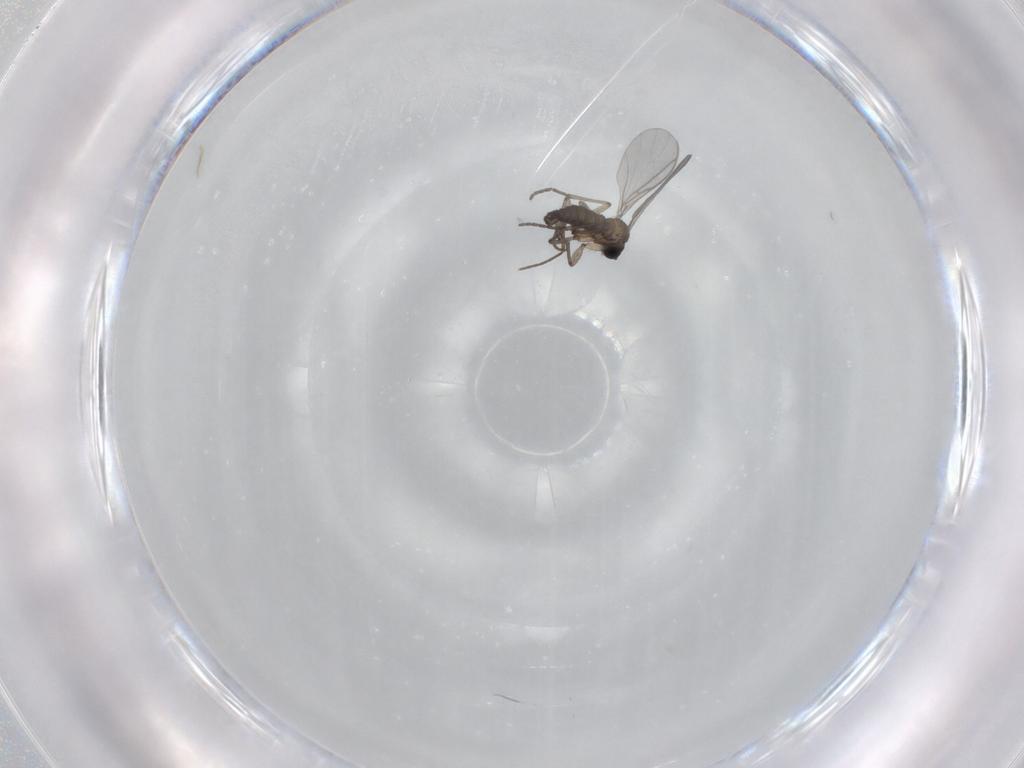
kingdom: Animalia
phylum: Arthropoda
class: Insecta
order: Diptera
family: Sciaridae
